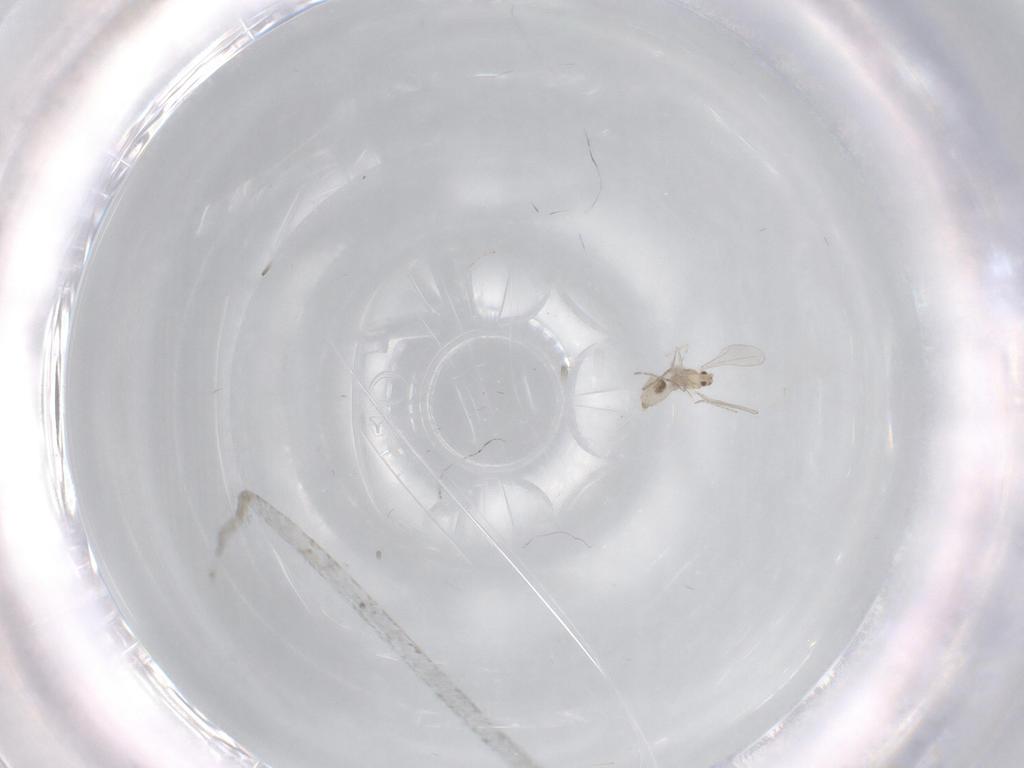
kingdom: Animalia
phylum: Arthropoda
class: Insecta
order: Diptera
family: Cecidomyiidae
